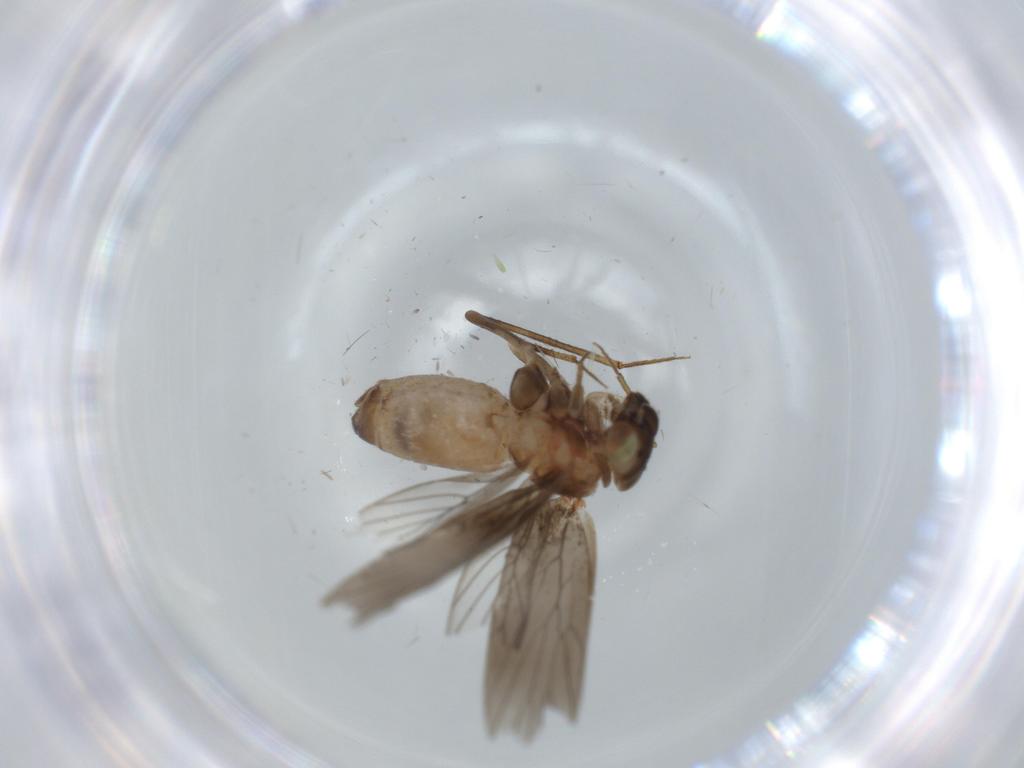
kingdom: Animalia
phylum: Arthropoda
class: Insecta
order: Psocodea
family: Lepidopsocidae
